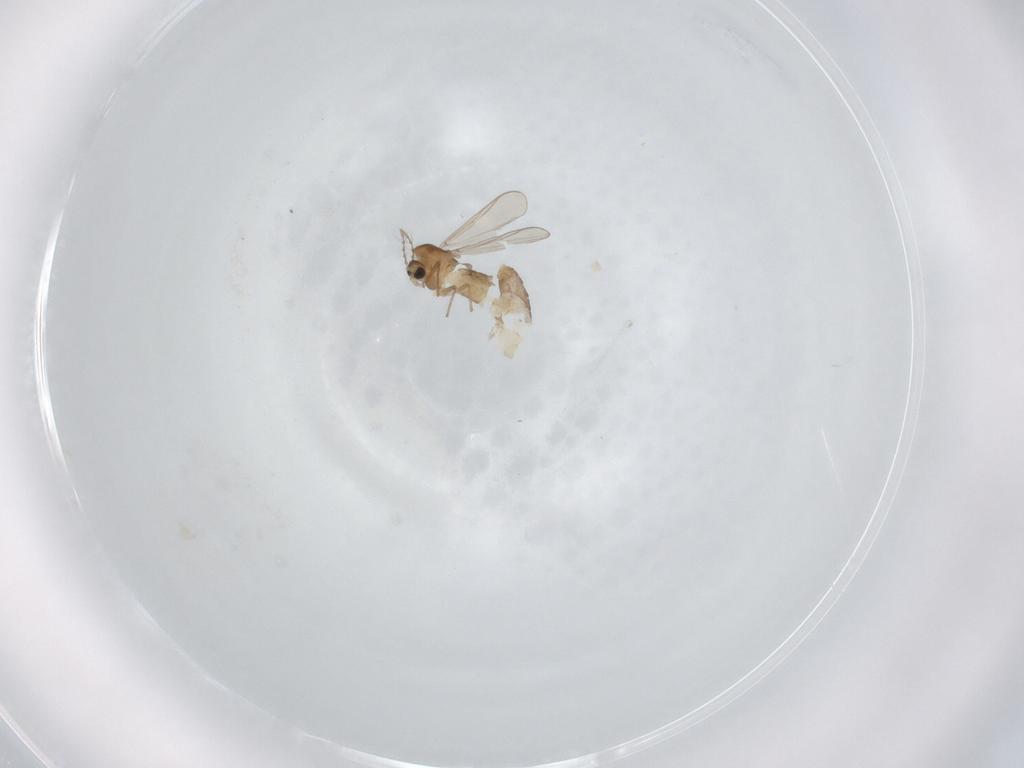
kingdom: Animalia
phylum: Arthropoda
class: Insecta
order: Diptera
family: Chironomidae
